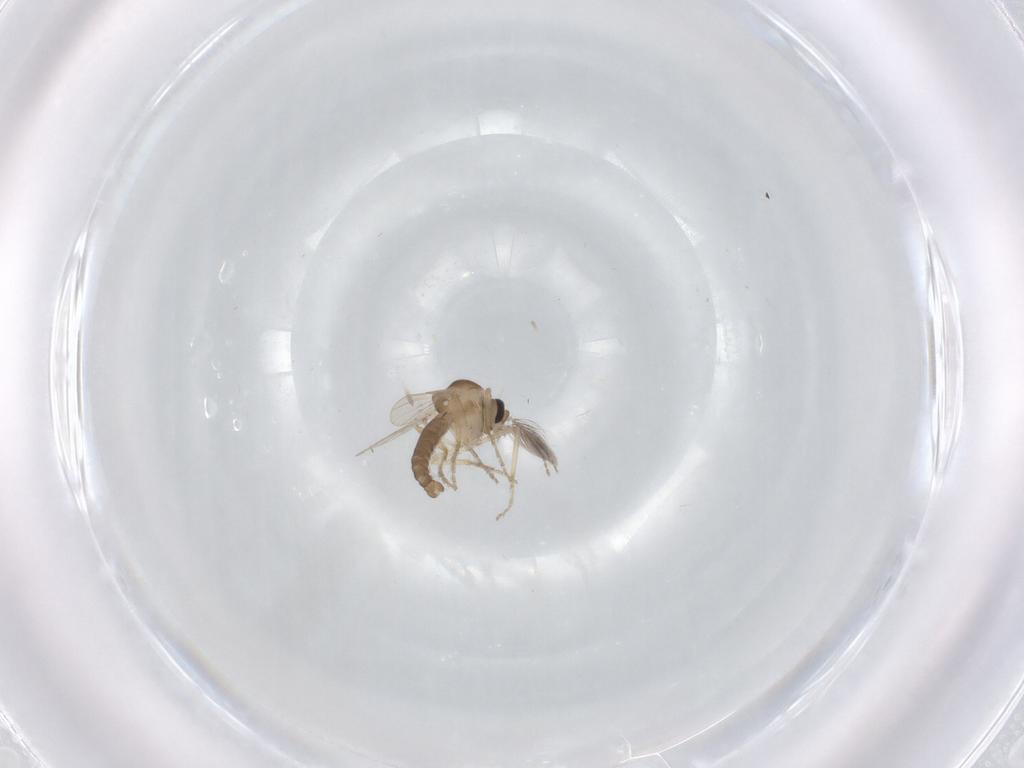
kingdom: Animalia
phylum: Arthropoda
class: Insecta
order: Diptera
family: Ceratopogonidae
